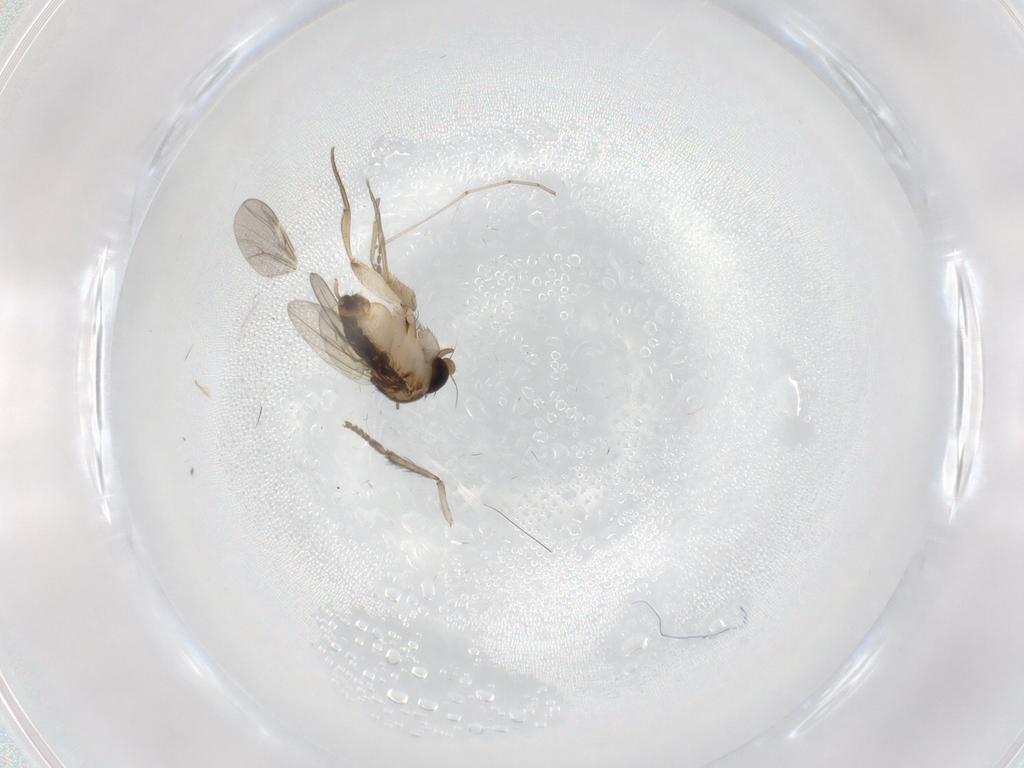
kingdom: Animalia
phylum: Arthropoda
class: Insecta
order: Diptera
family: Cecidomyiidae
